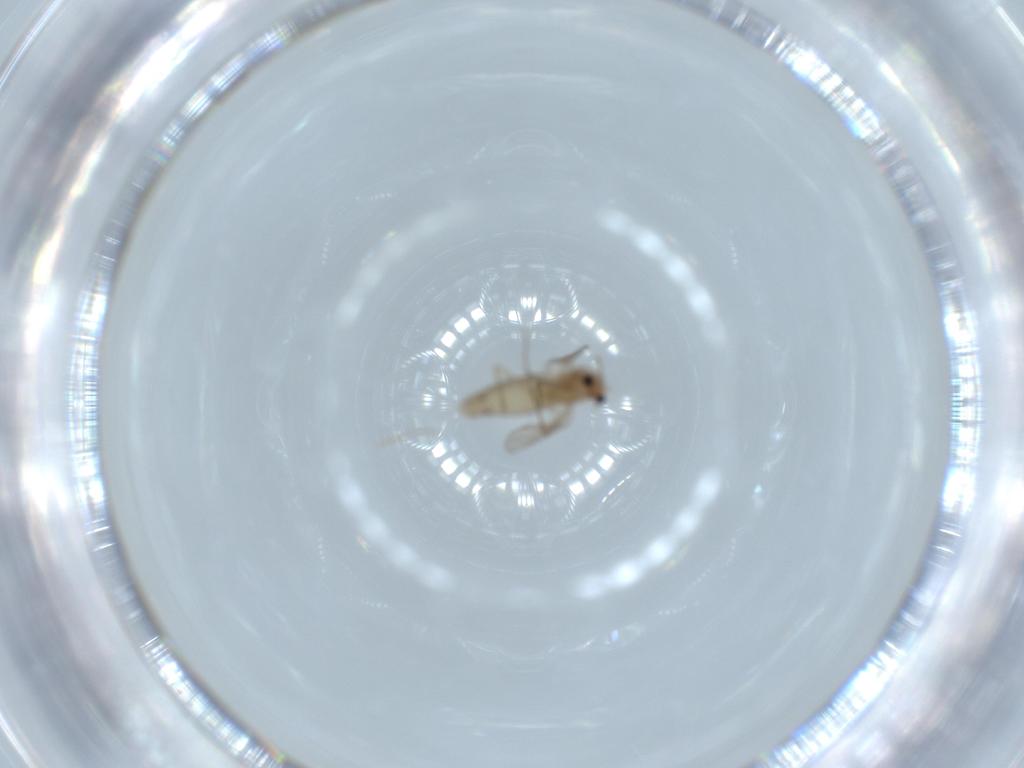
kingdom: Animalia
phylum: Arthropoda
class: Insecta
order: Diptera
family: Chironomidae
